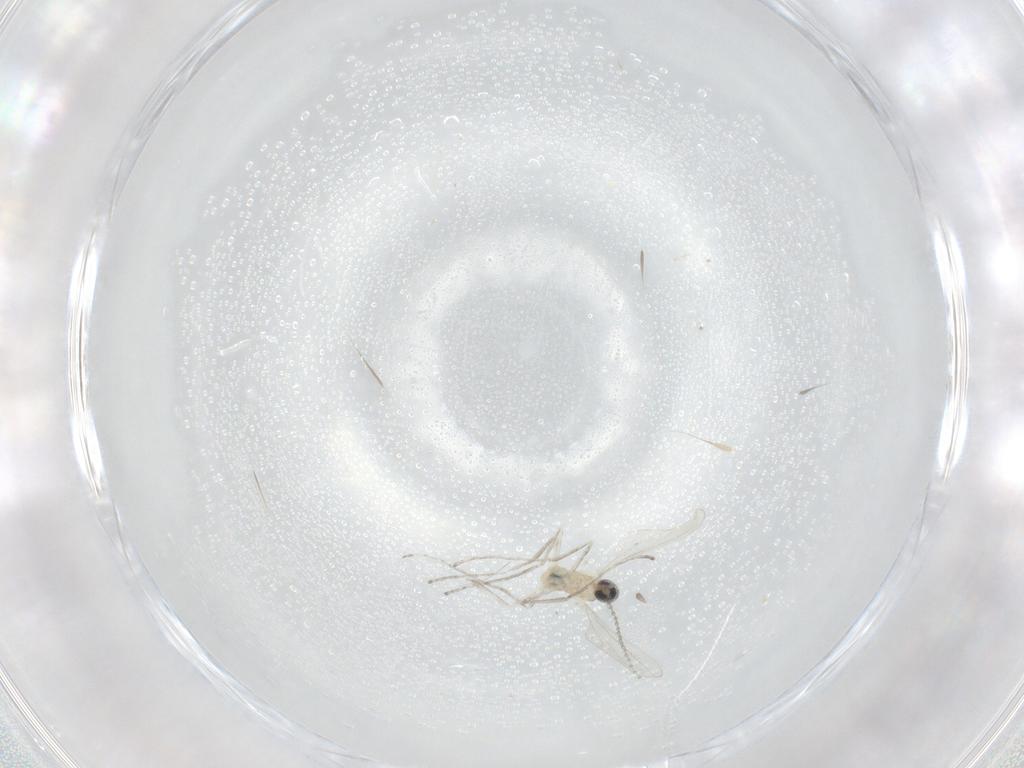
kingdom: Animalia
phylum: Arthropoda
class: Insecta
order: Diptera
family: Cecidomyiidae
